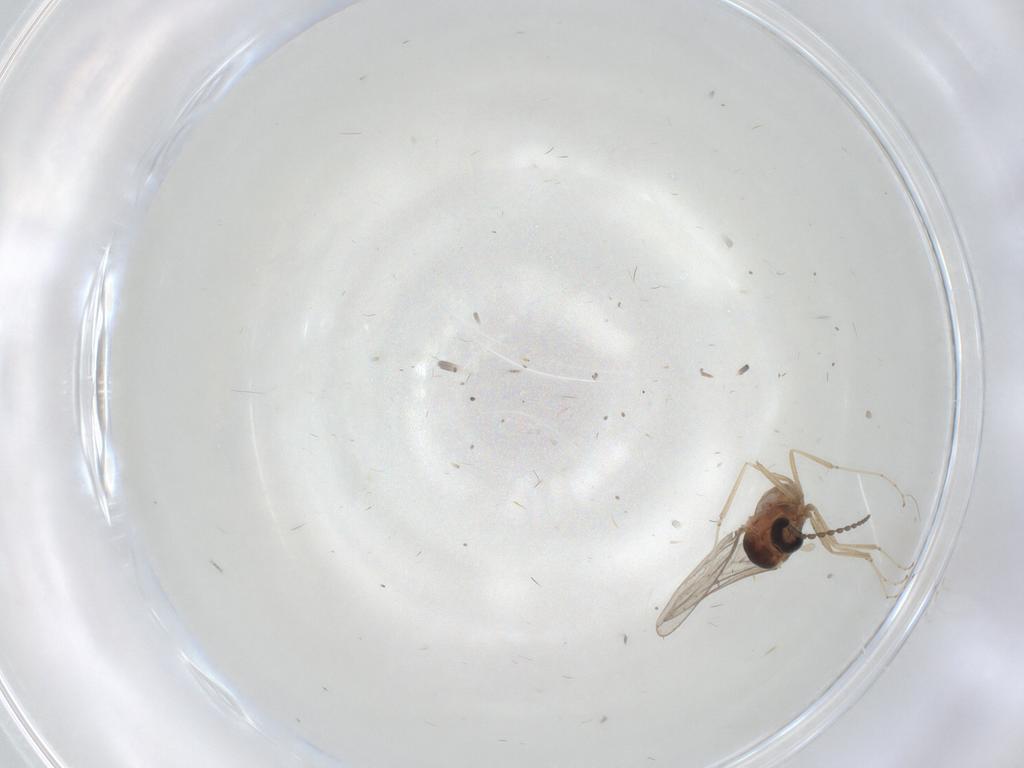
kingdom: Animalia
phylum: Arthropoda
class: Insecta
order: Diptera
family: Cecidomyiidae
